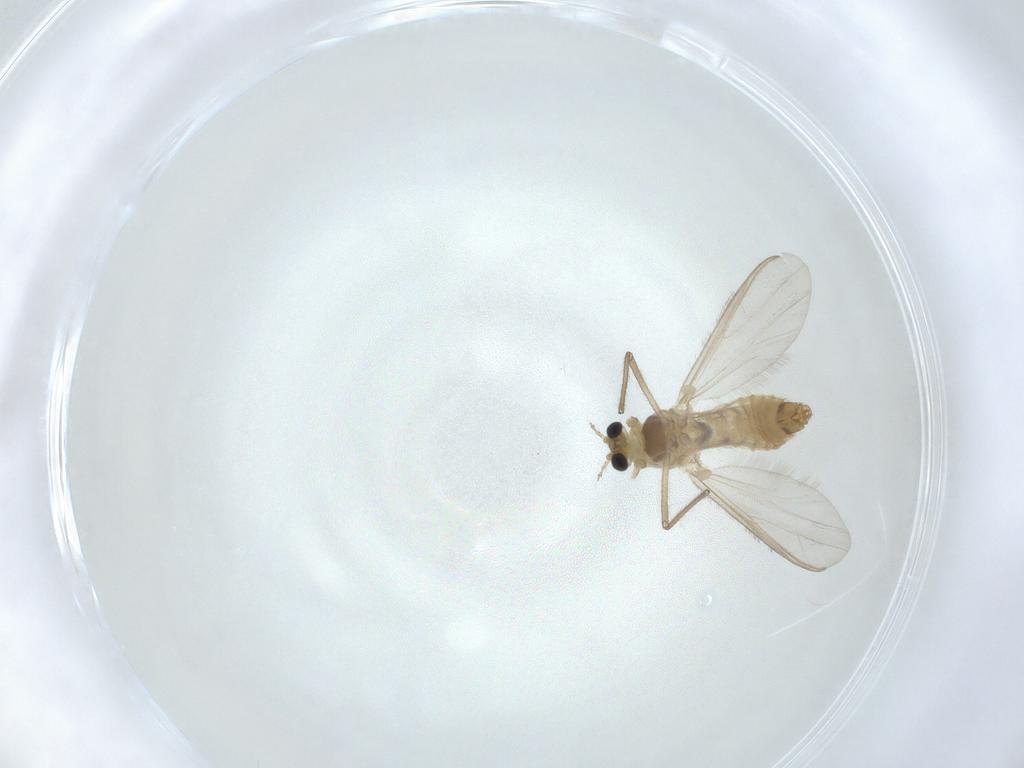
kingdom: Animalia
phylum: Arthropoda
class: Insecta
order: Diptera
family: Chironomidae
